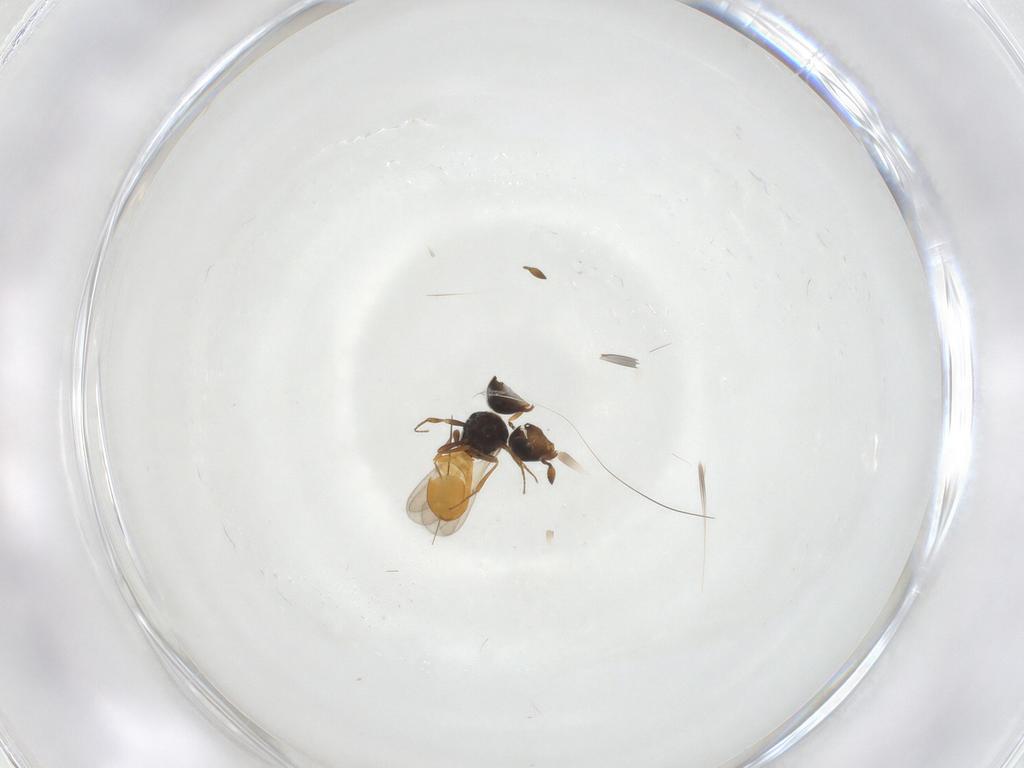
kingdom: Animalia
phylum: Arthropoda
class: Insecta
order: Hymenoptera
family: Scelionidae
